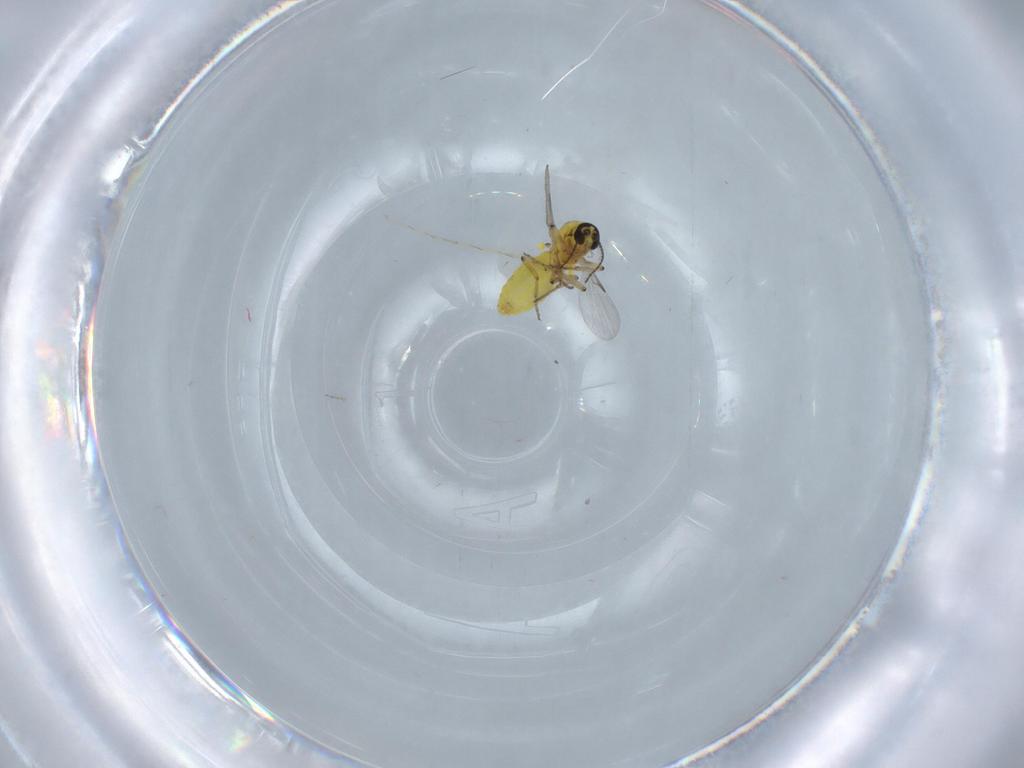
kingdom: Animalia
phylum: Arthropoda
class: Insecta
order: Diptera
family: Ceratopogonidae
